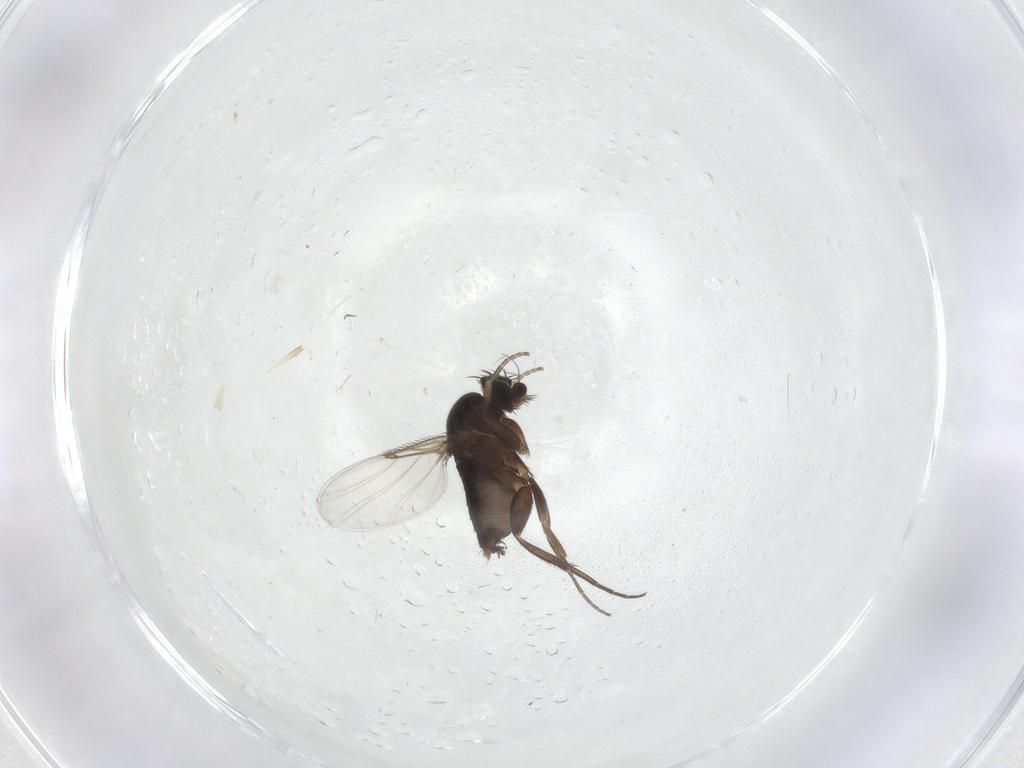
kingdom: Animalia
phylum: Arthropoda
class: Insecta
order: Diptera
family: Phoridae
